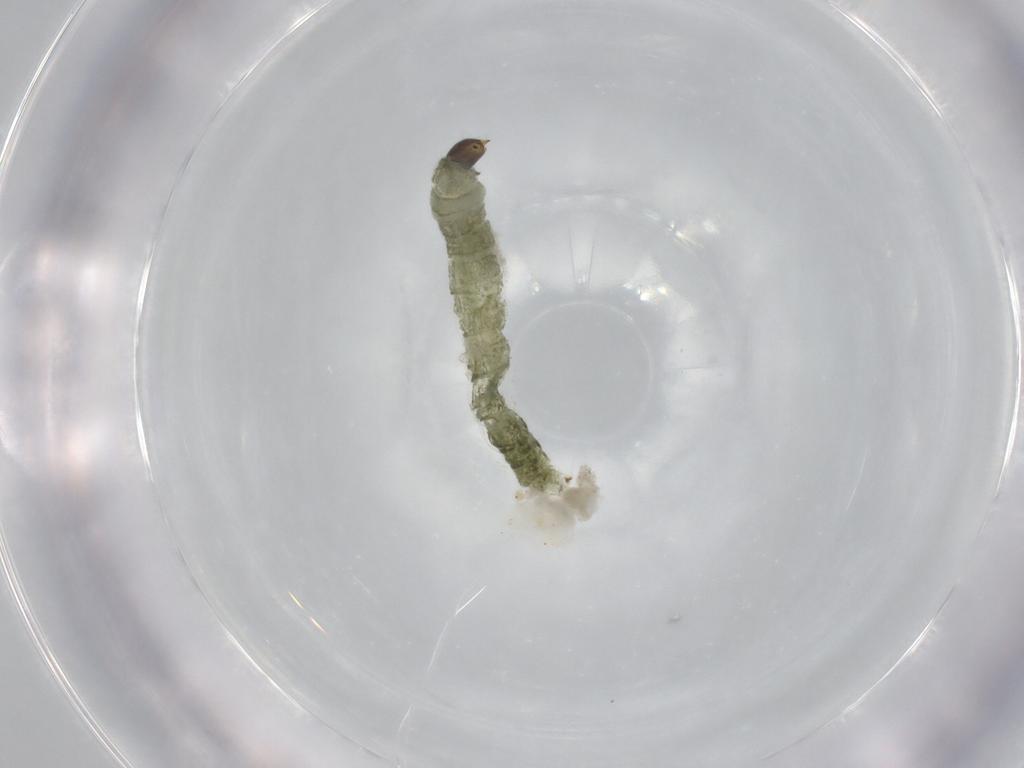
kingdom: Animalia
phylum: Arthropoda
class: Insecta
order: Diptera
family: Chironomidae
